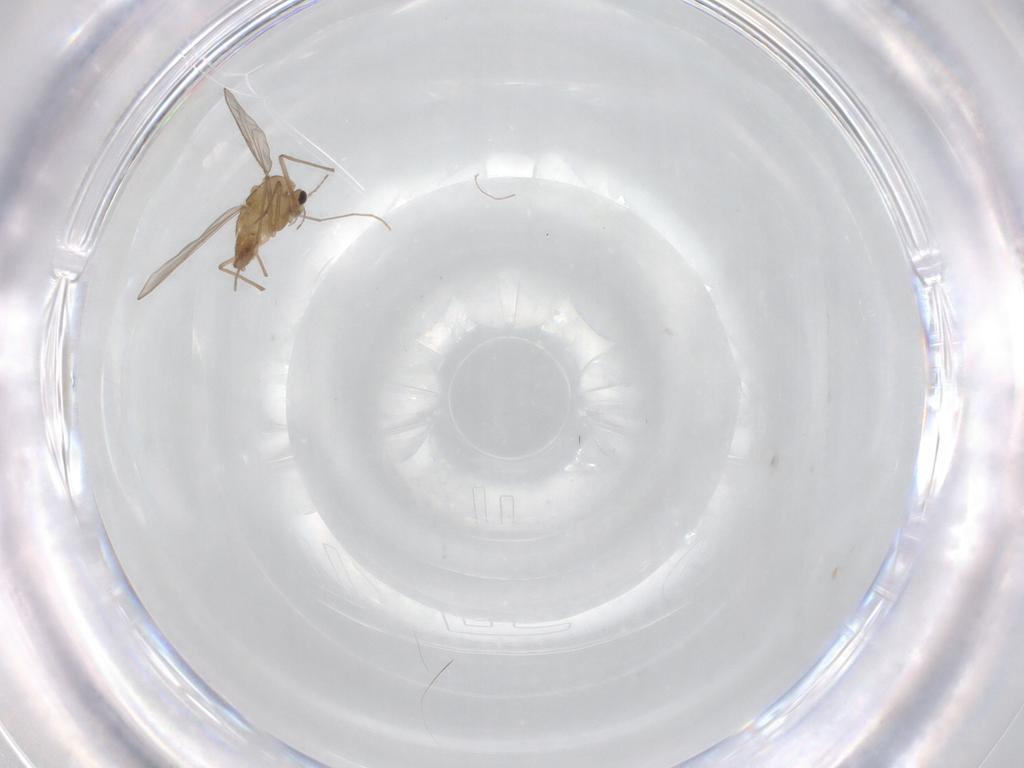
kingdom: Animalia
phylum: Arthropoda
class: Insecta
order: Diptera
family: Chironomidae
